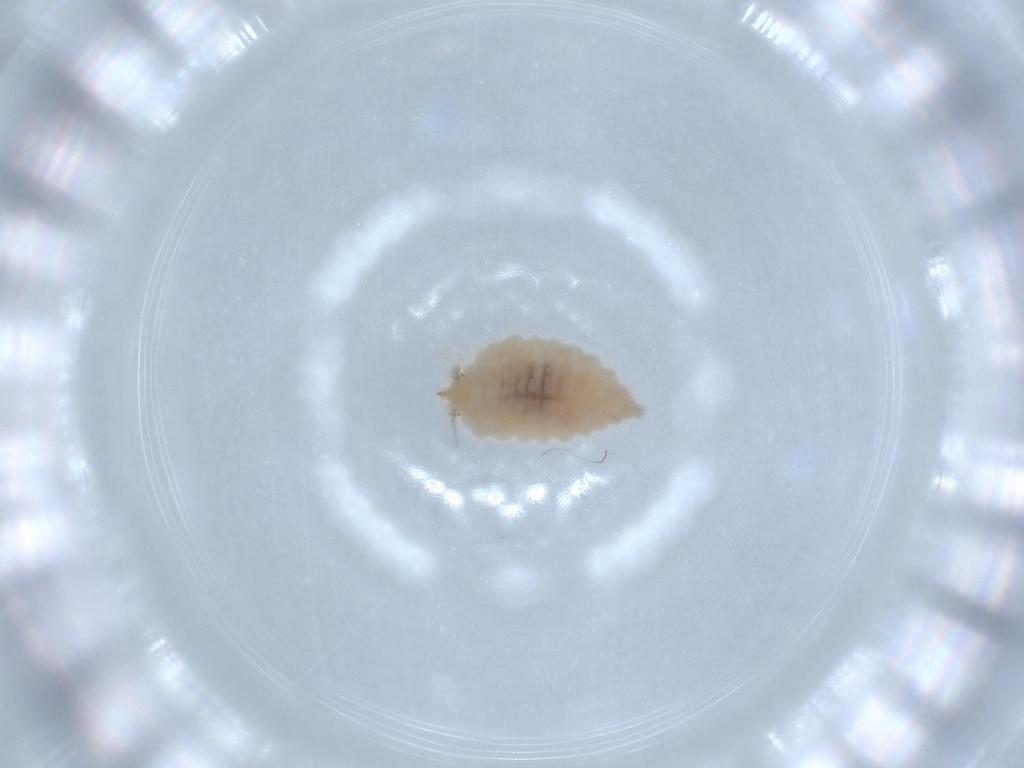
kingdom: Animalia
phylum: Arthropoda
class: Insecta
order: Neuroptera
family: Coniopterygidae
